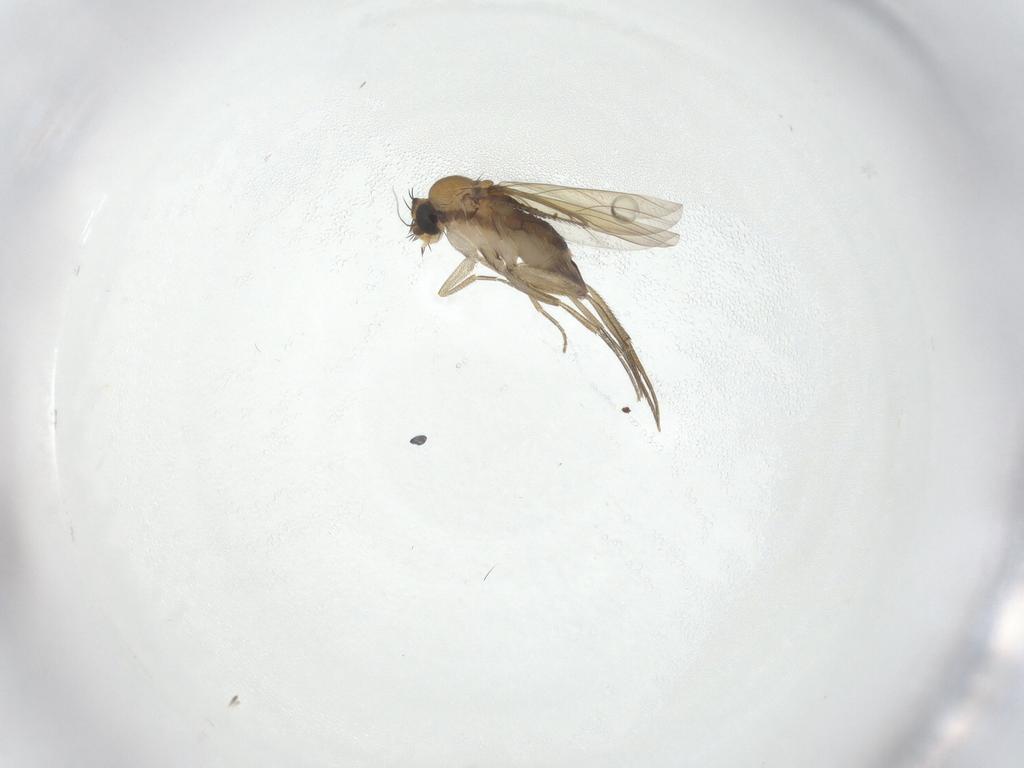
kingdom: Animalia
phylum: Arthropoda
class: Insecta
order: Diptera
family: Phoridae
